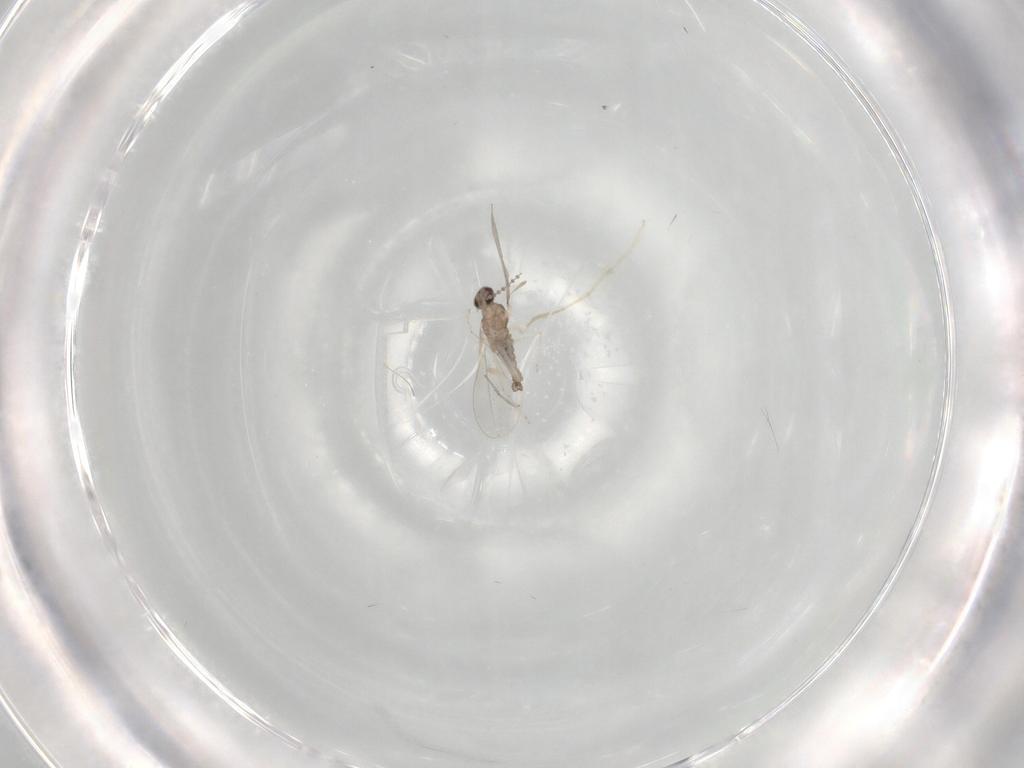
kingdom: Animalia
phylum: Arthropoda
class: Insecta
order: Diptera
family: Cecidomyiidae
